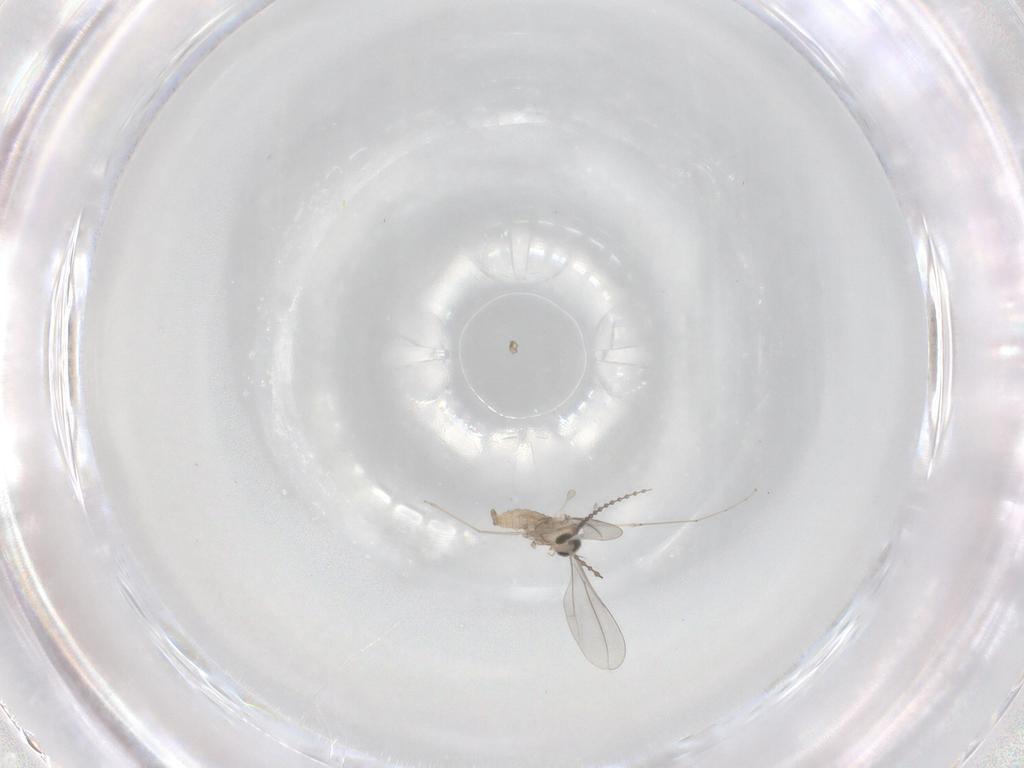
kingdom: Animalia
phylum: Arthropoda
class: Insecta
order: Diptera
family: Cecidomyiidae
